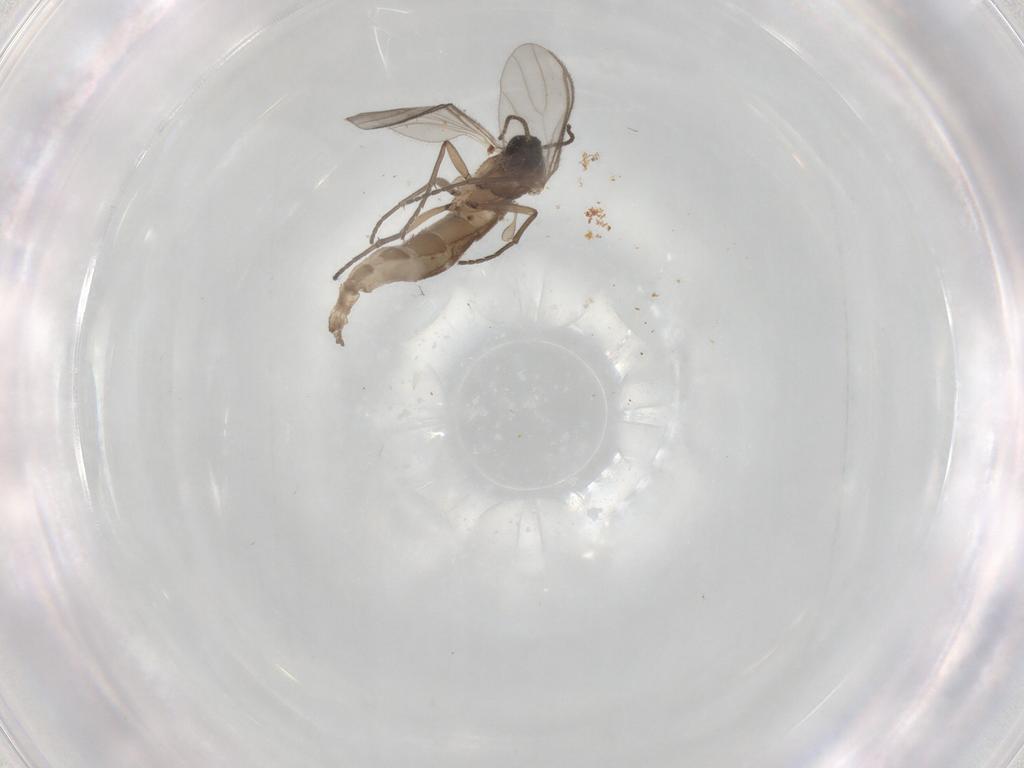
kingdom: Animalia
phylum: Arthropoda
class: Insecta
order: Diptera
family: Sciaridae
